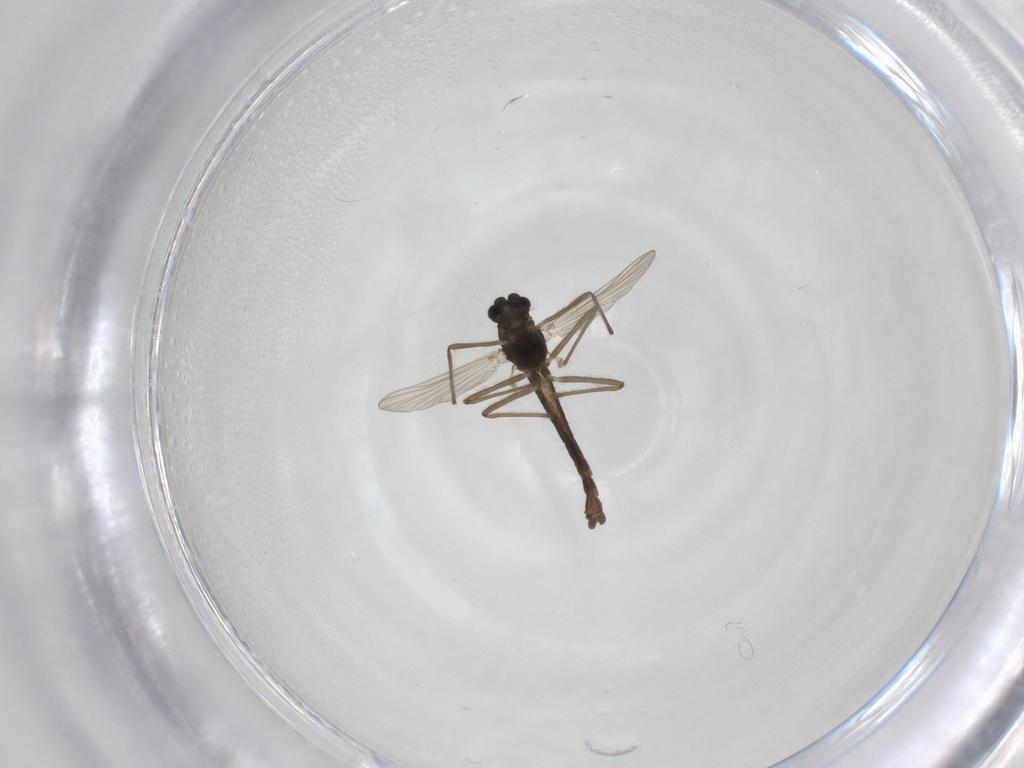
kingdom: Animalia
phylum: Arthropoda
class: Insecta
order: Diptera
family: Chironomidae
